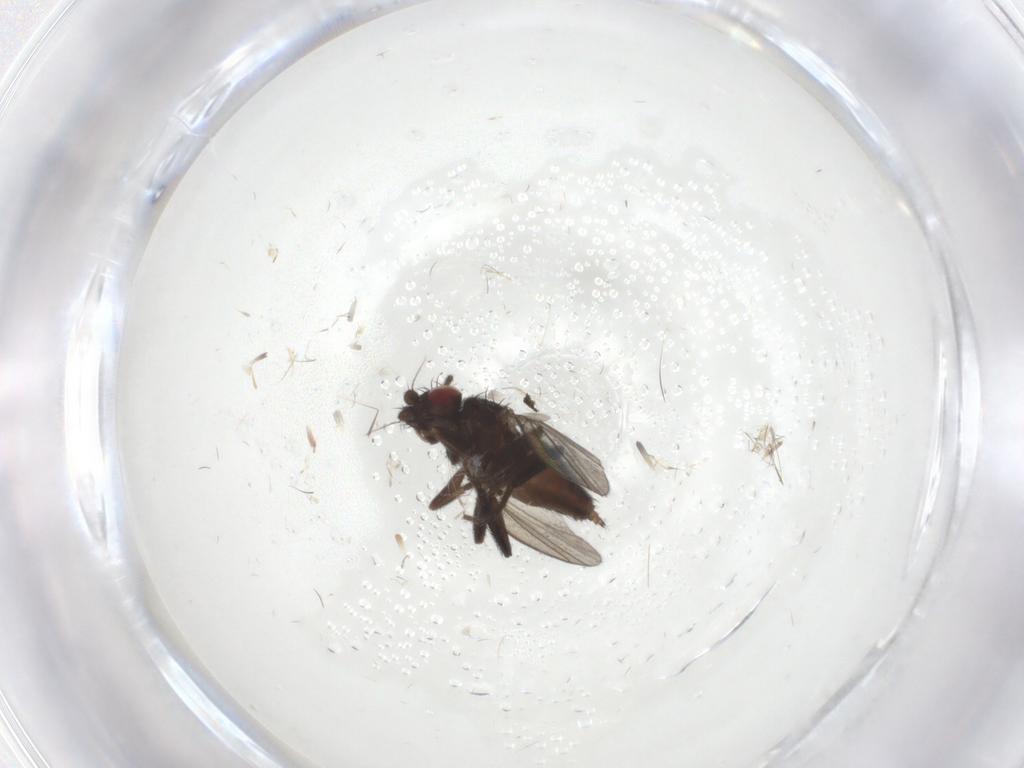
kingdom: Animalia
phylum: Arthropoda
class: Insecta
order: Diptera
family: Milichiidae
